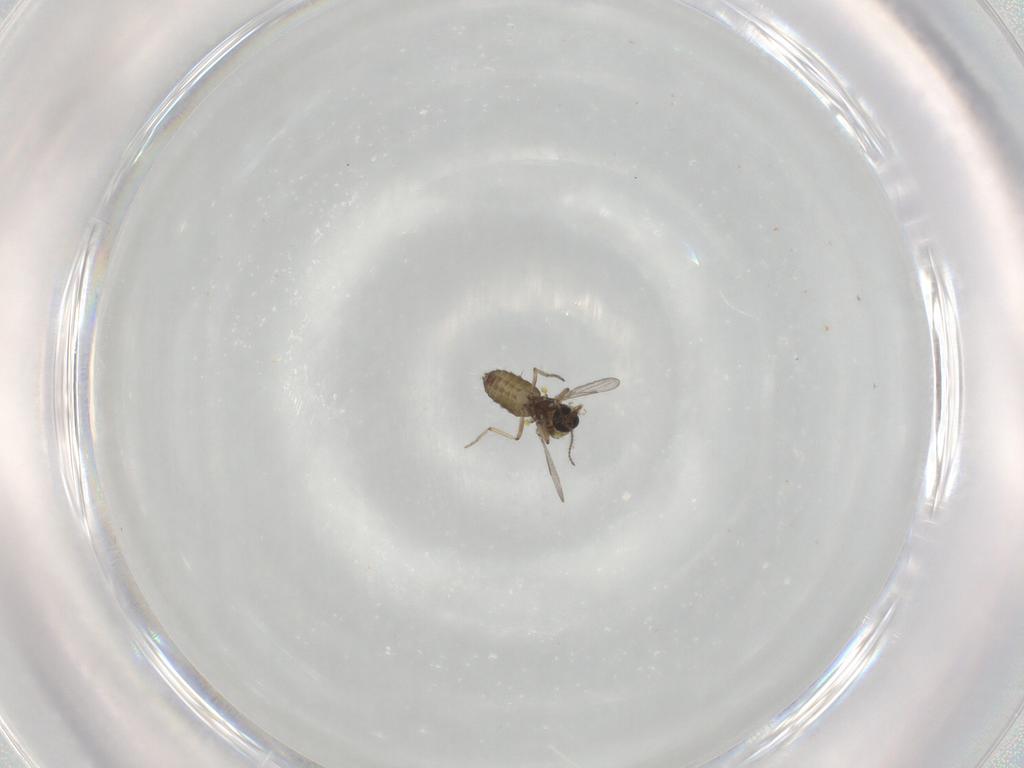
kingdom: Animalia
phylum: Arthropoda
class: Insecta
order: Diptera
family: Ceratopogonidae
